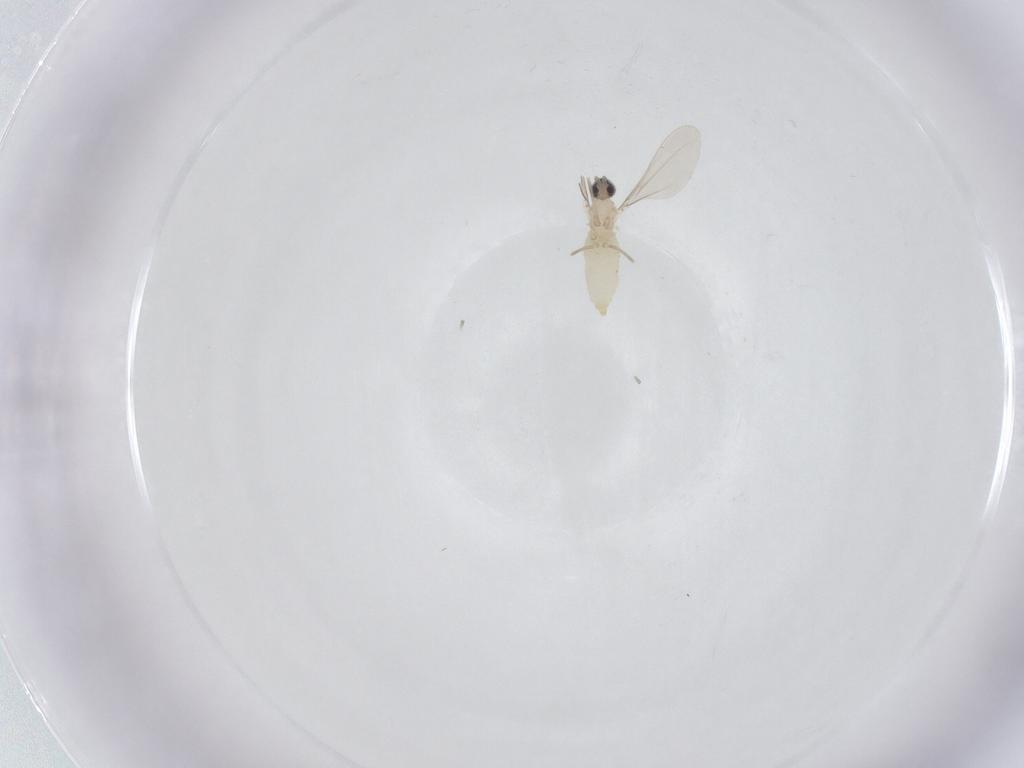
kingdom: Animalia
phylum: Arthropoda
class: Insecta
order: Diptera
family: Cecidomyiidae
